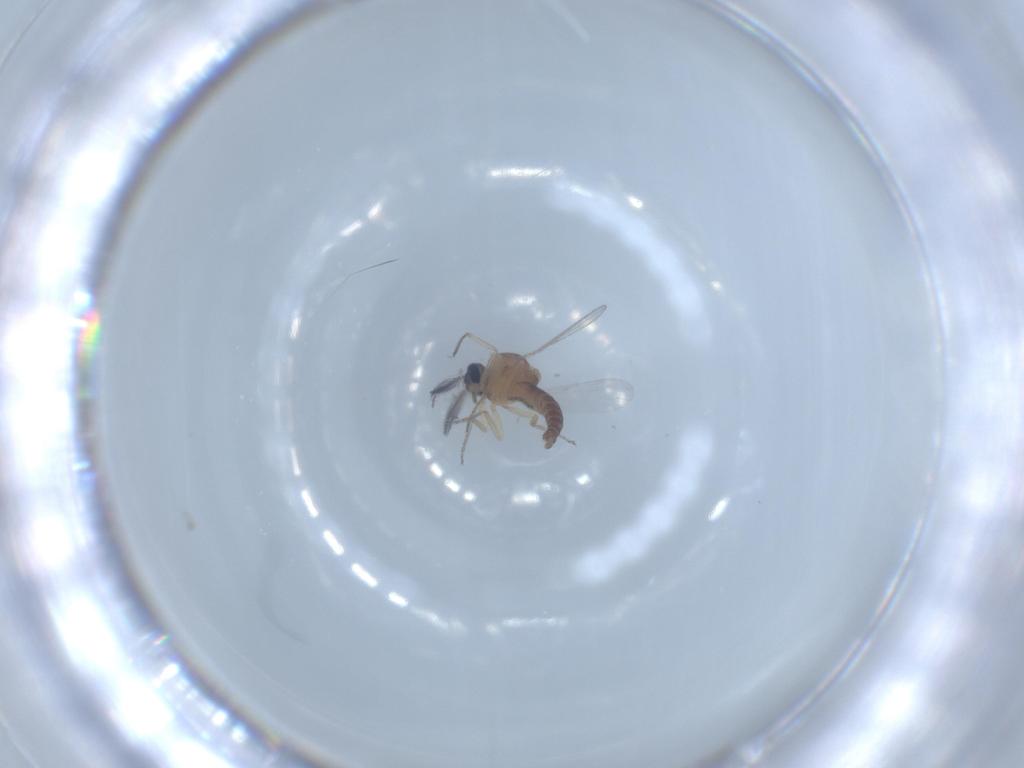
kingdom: Animalia
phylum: Arthropoda
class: Insecta
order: Diptera
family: Ceratopogonidae
